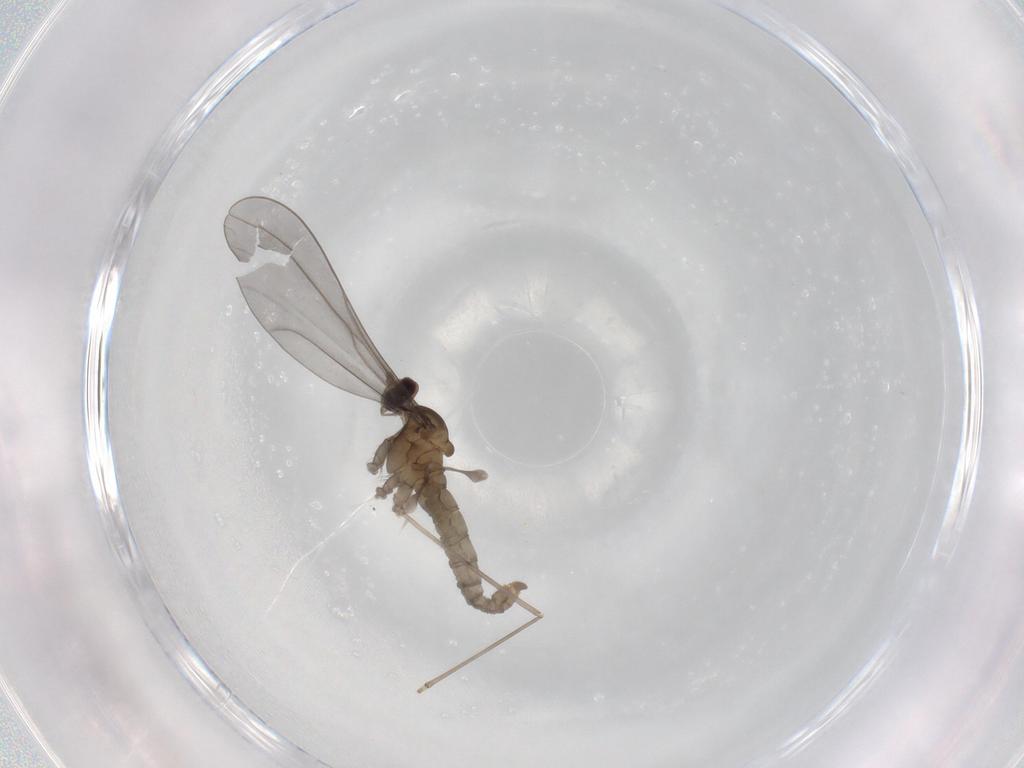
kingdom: Animalia
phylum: Arthropoda
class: Insecta
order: Diptera
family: Cecidomyiidae
